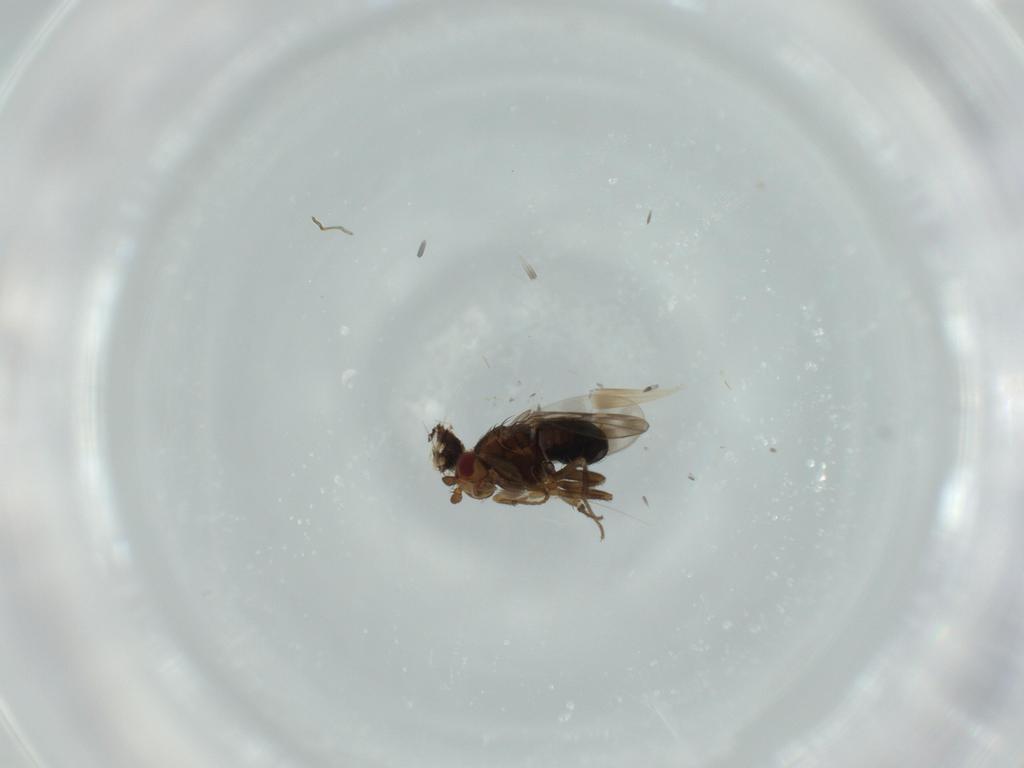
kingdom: Animalia
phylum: Arthropoda
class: Insecta
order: Diptera
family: Sphaeroceridae
